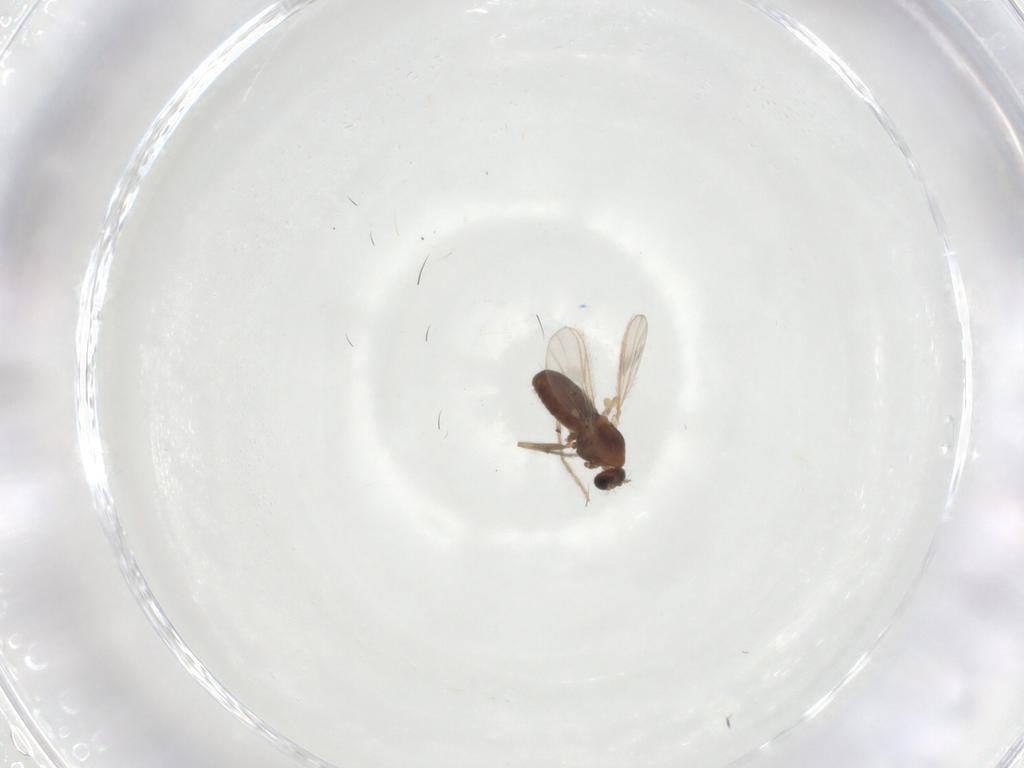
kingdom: Animalia
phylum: Arthropoda
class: Insecta
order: Diptera
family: Chironomidae
